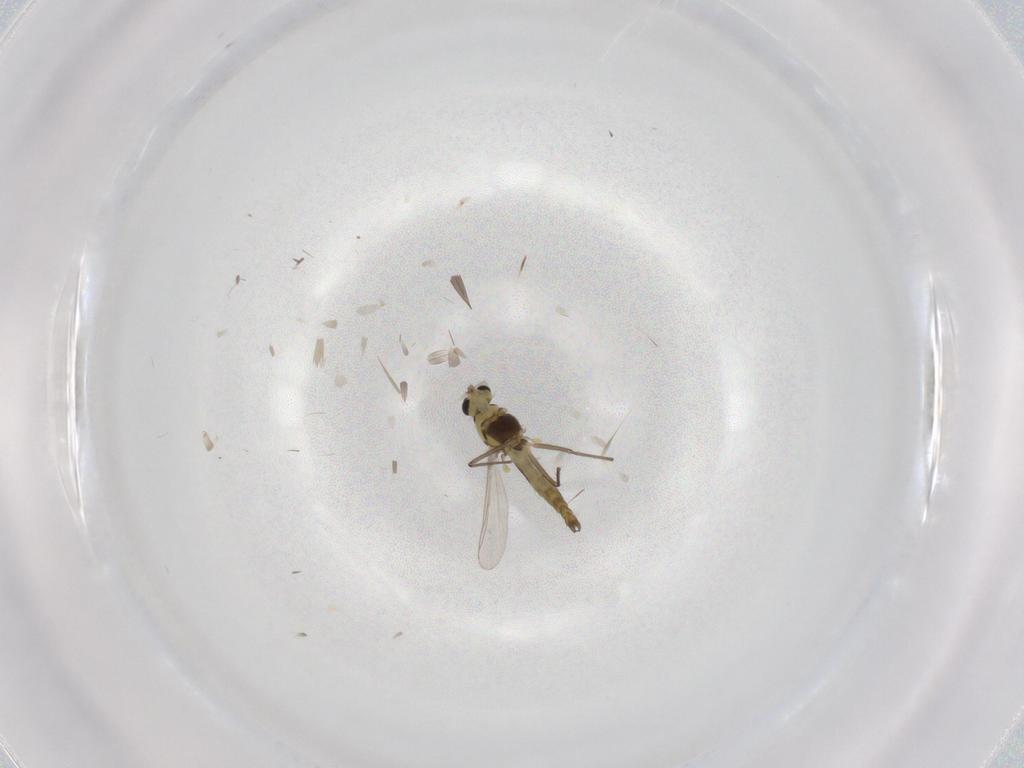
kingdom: Animalia
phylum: Arthropoda
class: Insecta
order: Diptera
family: Chironomidae
